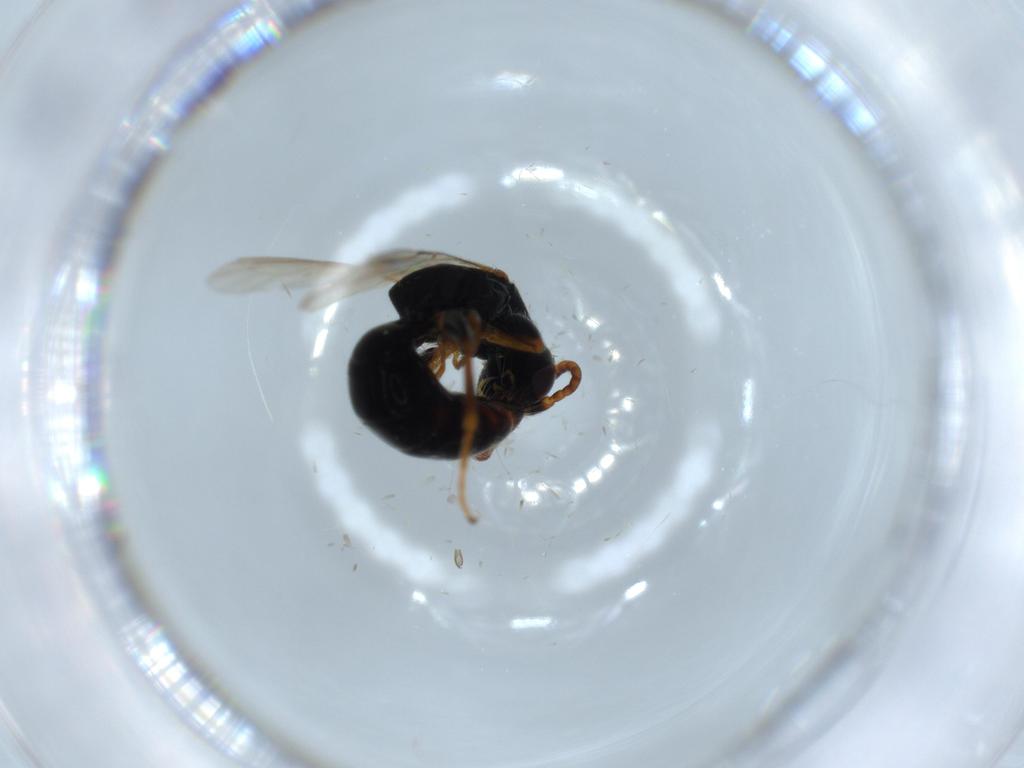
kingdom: Animalia
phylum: Arthropoda
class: Insecta
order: Hymenoptera
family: Bethylidae
